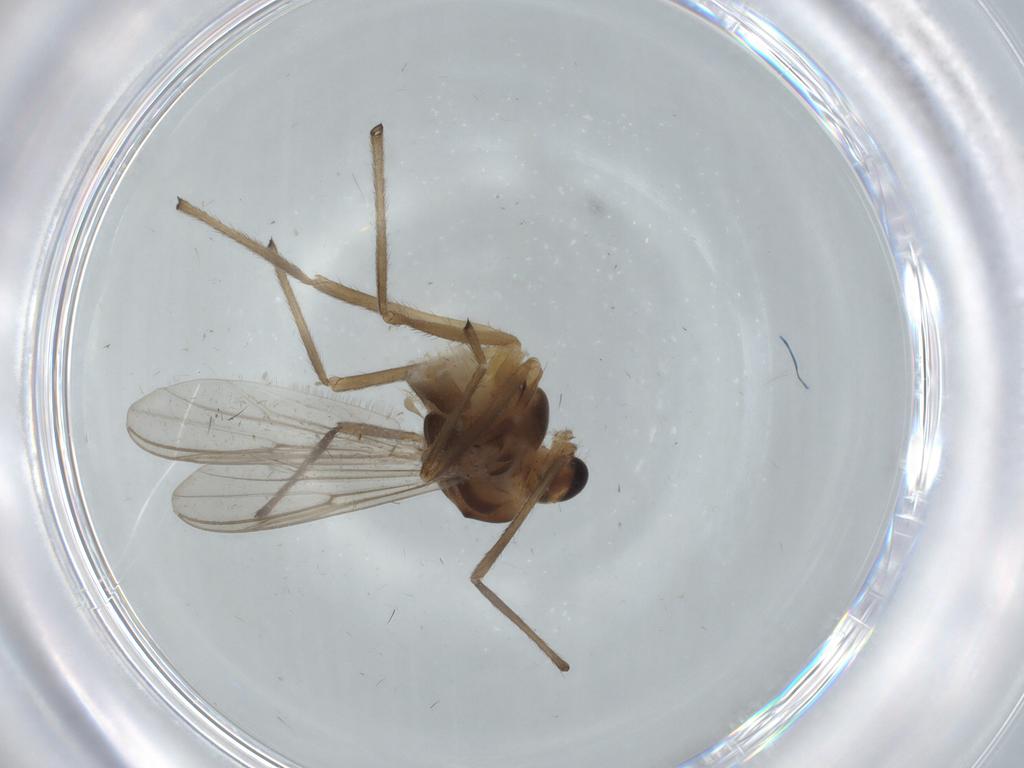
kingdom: Animalia
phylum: Arthropoda
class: Insecta
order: Diptera
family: Chironomidae
